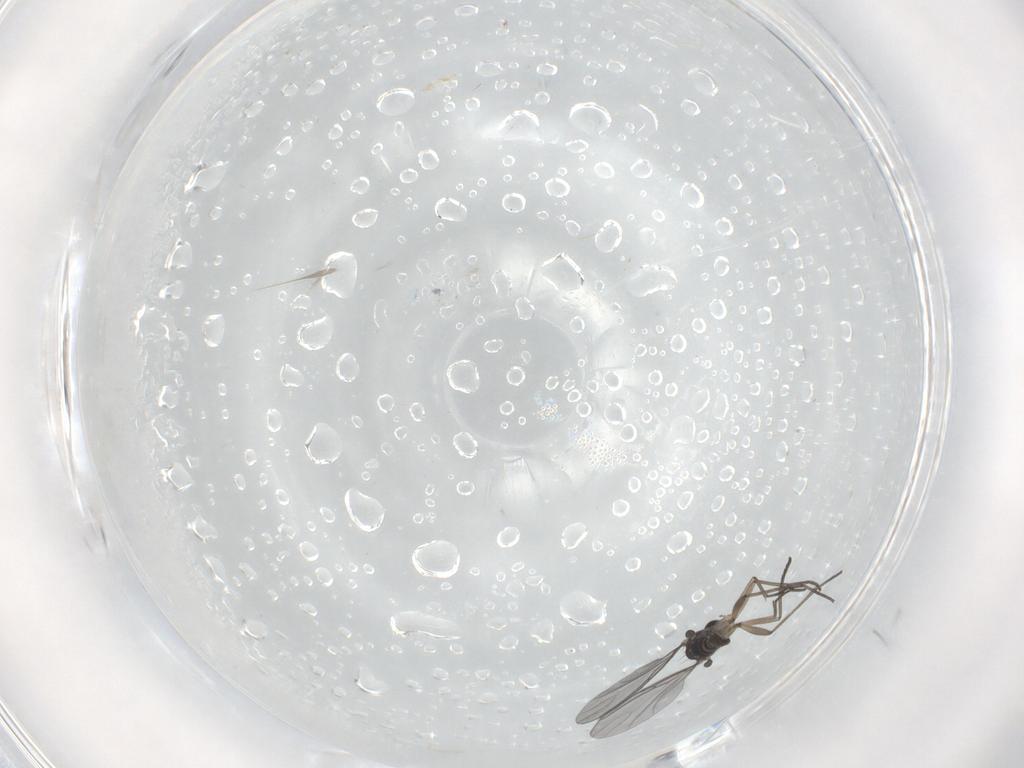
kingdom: Animalia
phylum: Arthropoda
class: Insecta
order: Diptera
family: Sciaridae
